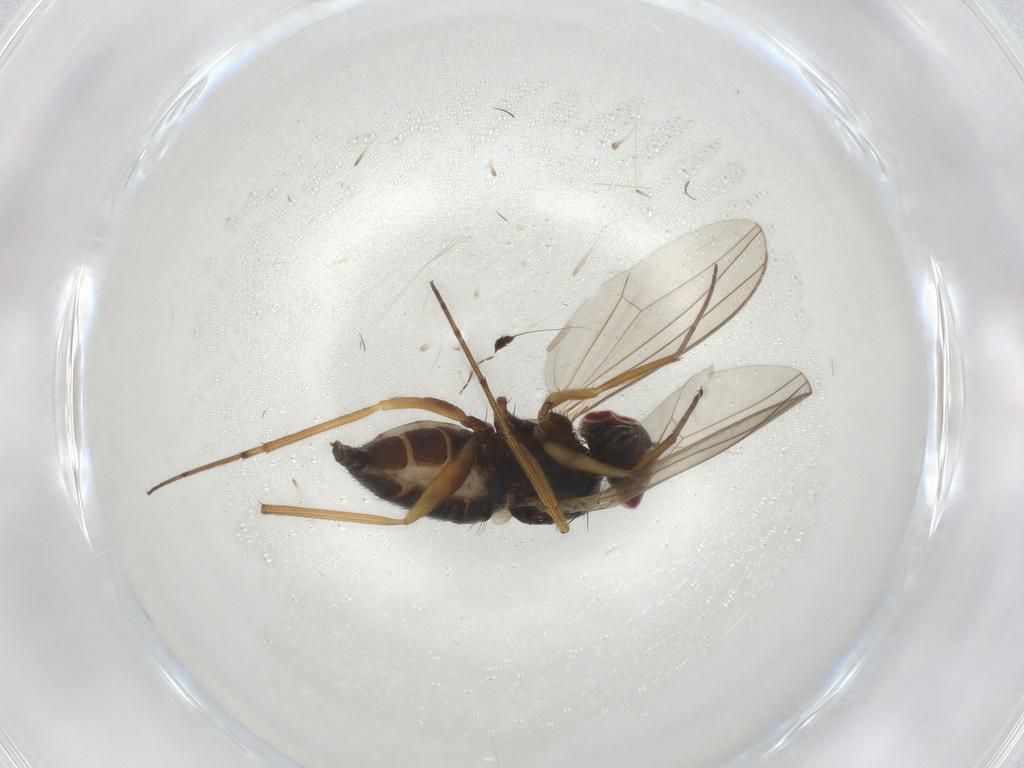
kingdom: Animalia
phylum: Arthropoda
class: Insecta
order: Diptera
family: Dolichopodidae
